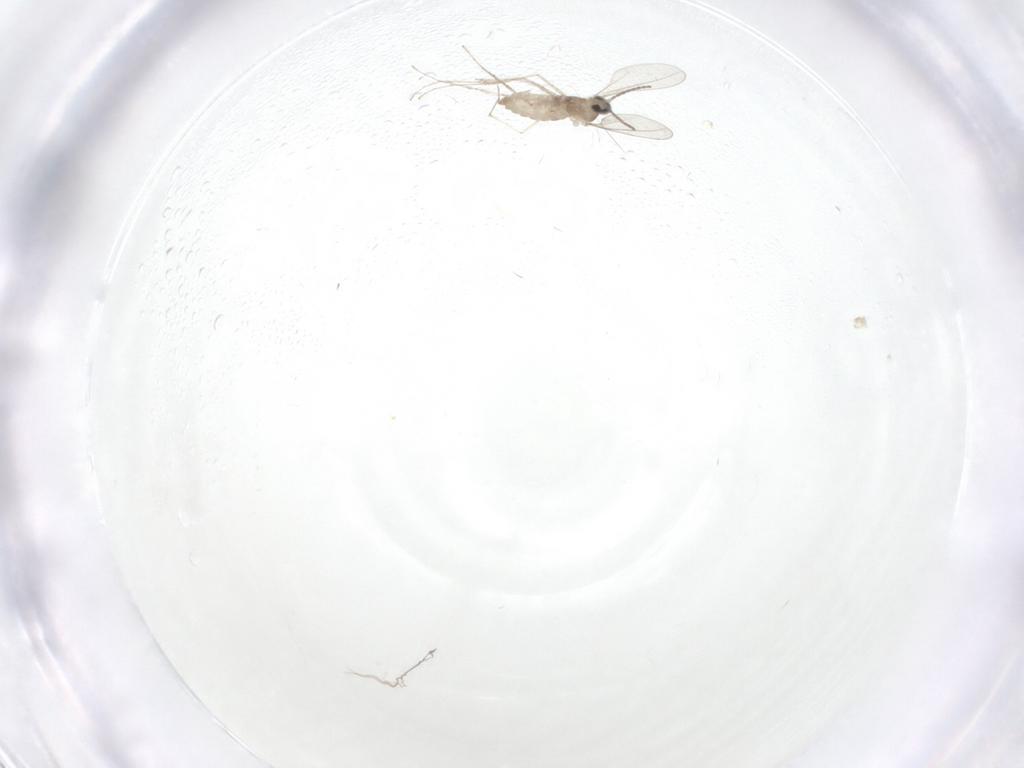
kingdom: Animalia
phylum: Arthropoda
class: Insecta
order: Diptera
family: Cecidomyiidae
